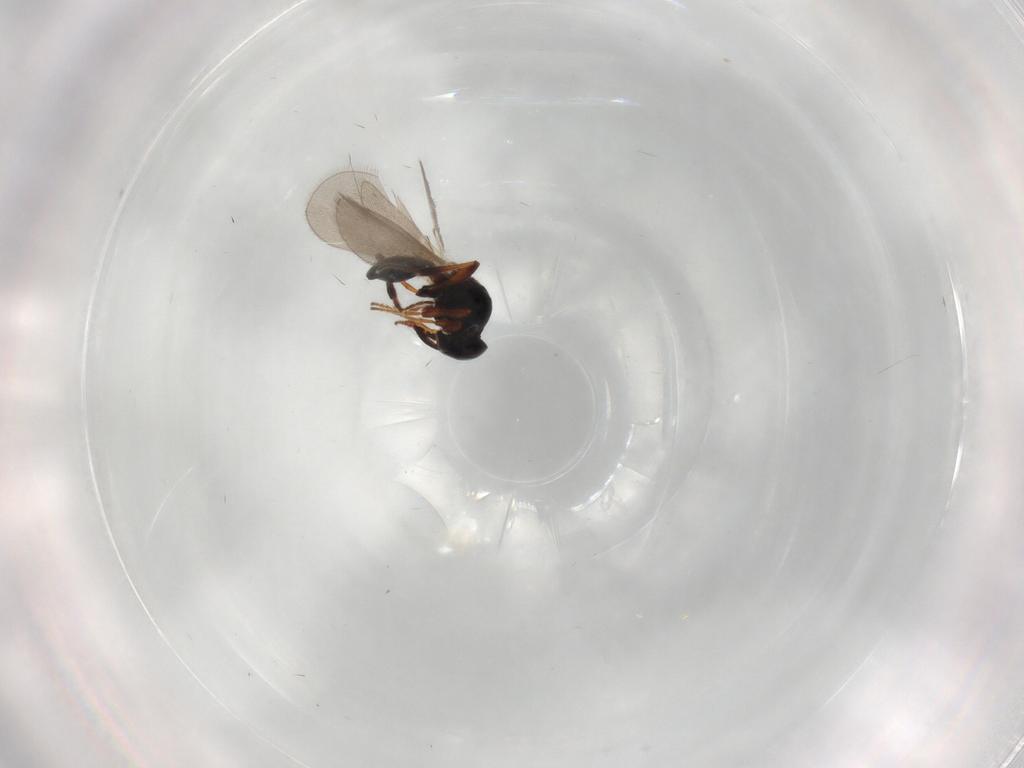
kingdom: Animalia
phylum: Arthropoda
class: Insecta
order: Hymenoptera
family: Platygastridae
